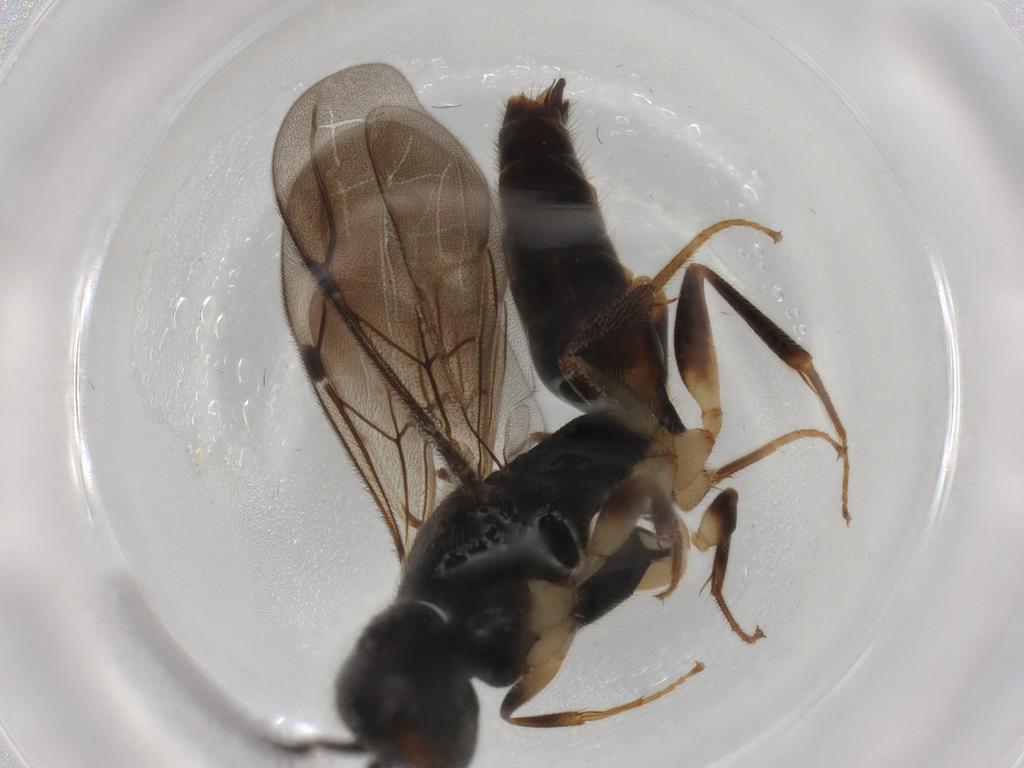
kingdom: Animalia
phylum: Arthropoda
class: Insecta
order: Hymenoptera
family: Bethylidae
